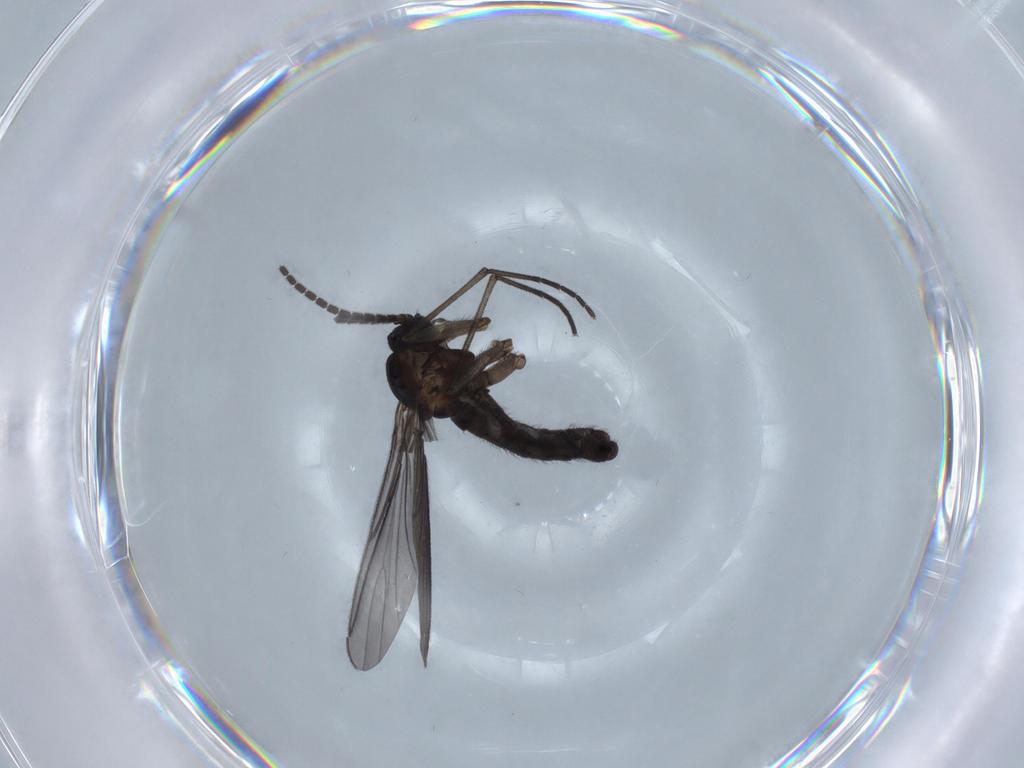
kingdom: Animalia
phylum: Arthropoda
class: Insecta
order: Diptera
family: Sciaridae
